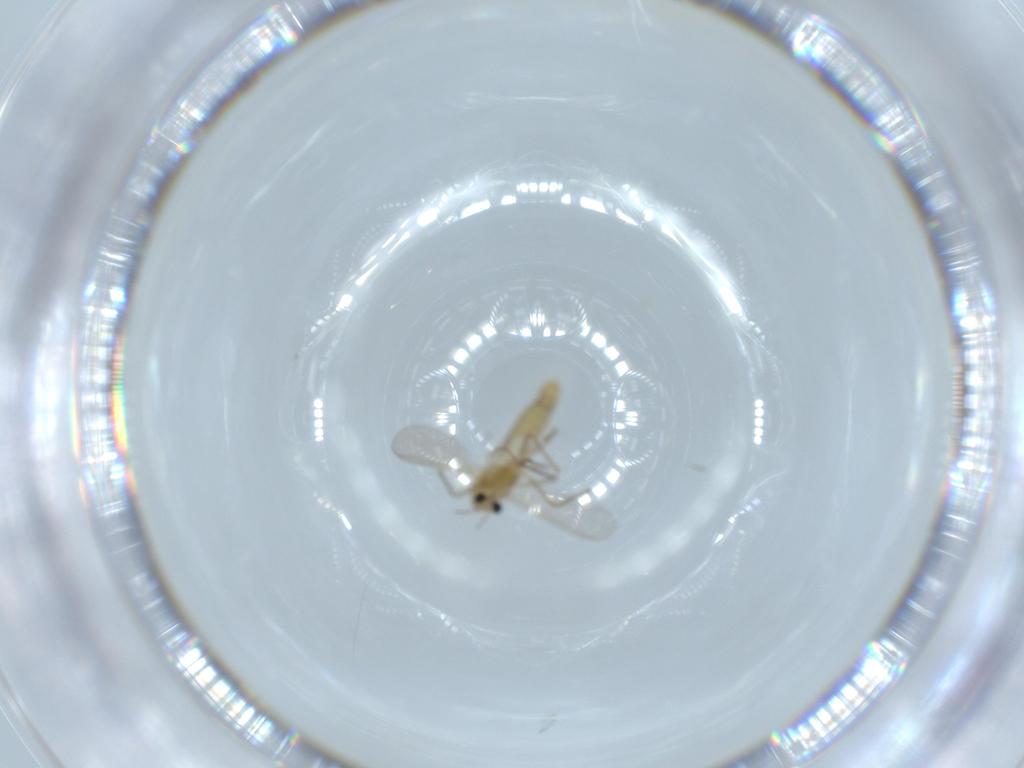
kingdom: Animalia
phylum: Arthropoda
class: Insecta
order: Diptera
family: Chironomidae
